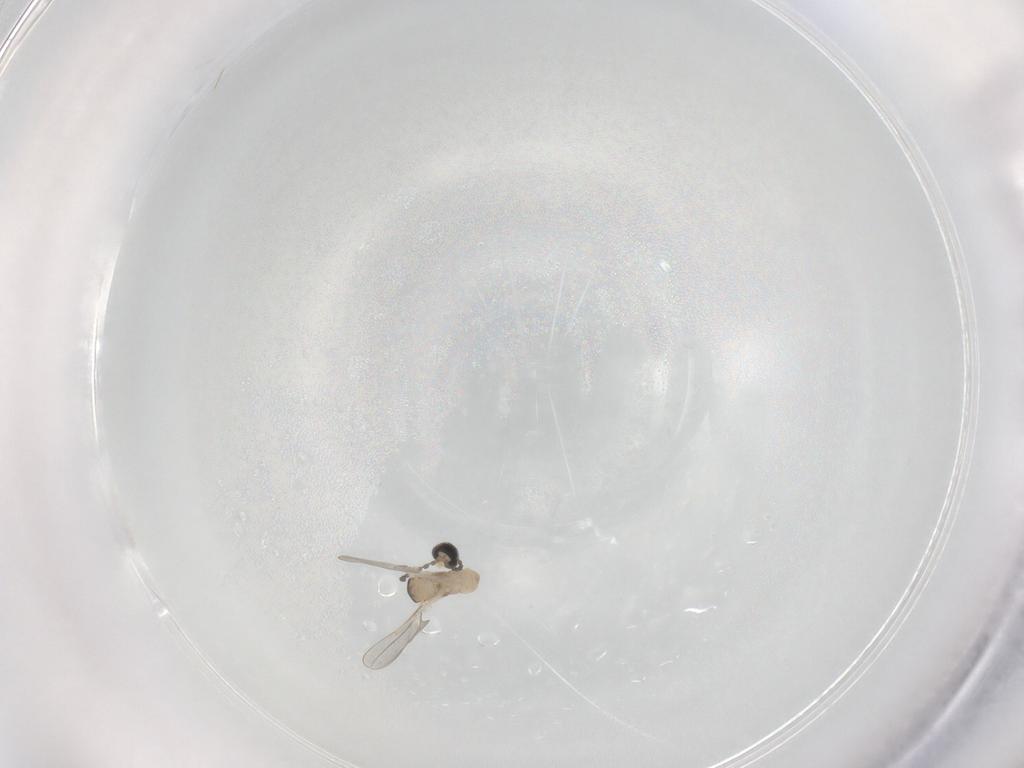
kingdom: Animalia
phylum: Arthropoda
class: Insecta
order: Diptera
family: Cecidomyiidae
